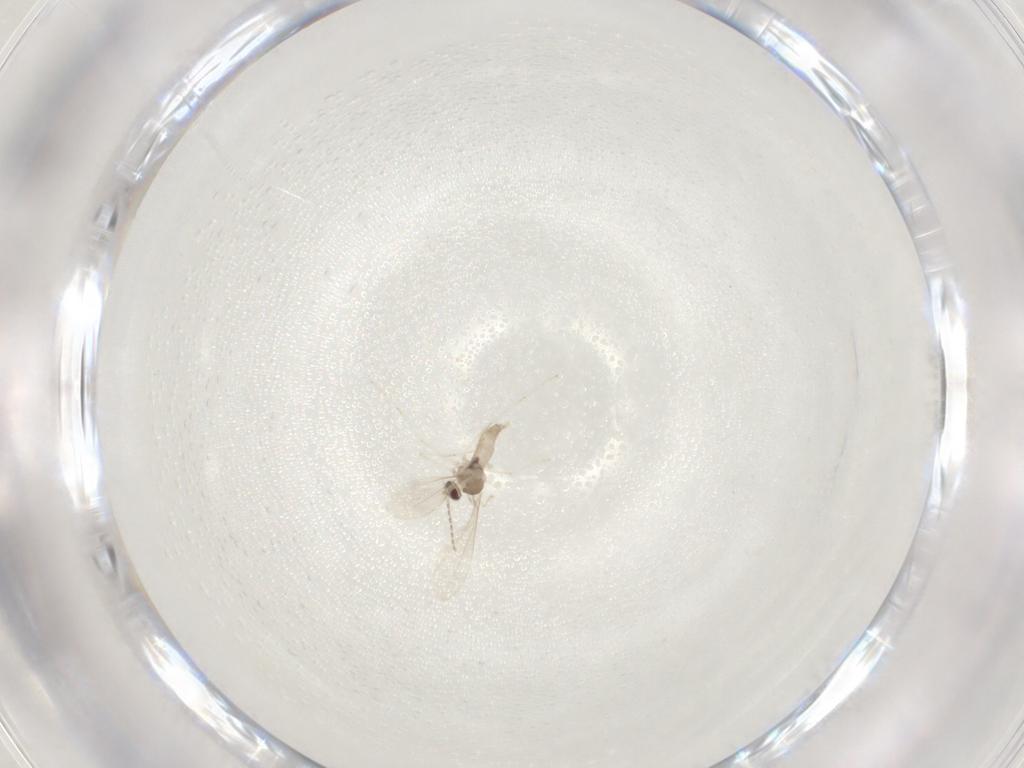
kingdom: Animalia
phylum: Arthropoda
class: Insecta
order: Diptera
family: Cecidomyiidae
